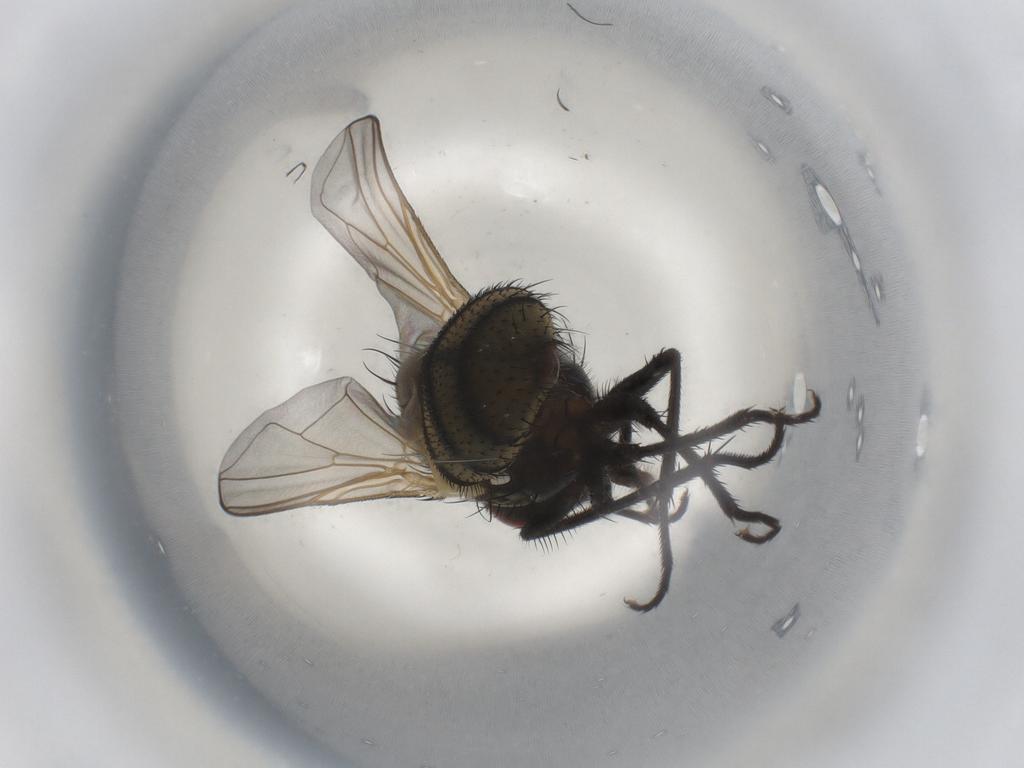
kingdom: Animalia
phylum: Arthropoda
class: Insecta
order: Diptera
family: Muscidae
